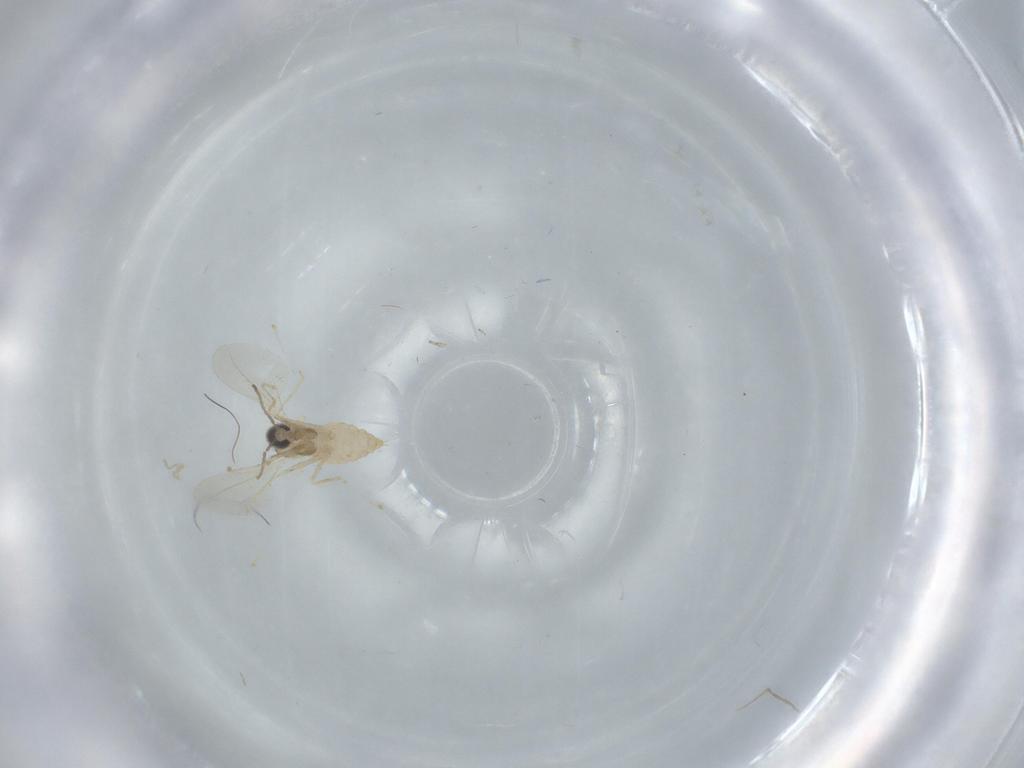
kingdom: Animalia
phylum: Arthropoda
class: Insecta
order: Diptera
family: Cecidomyiidae
